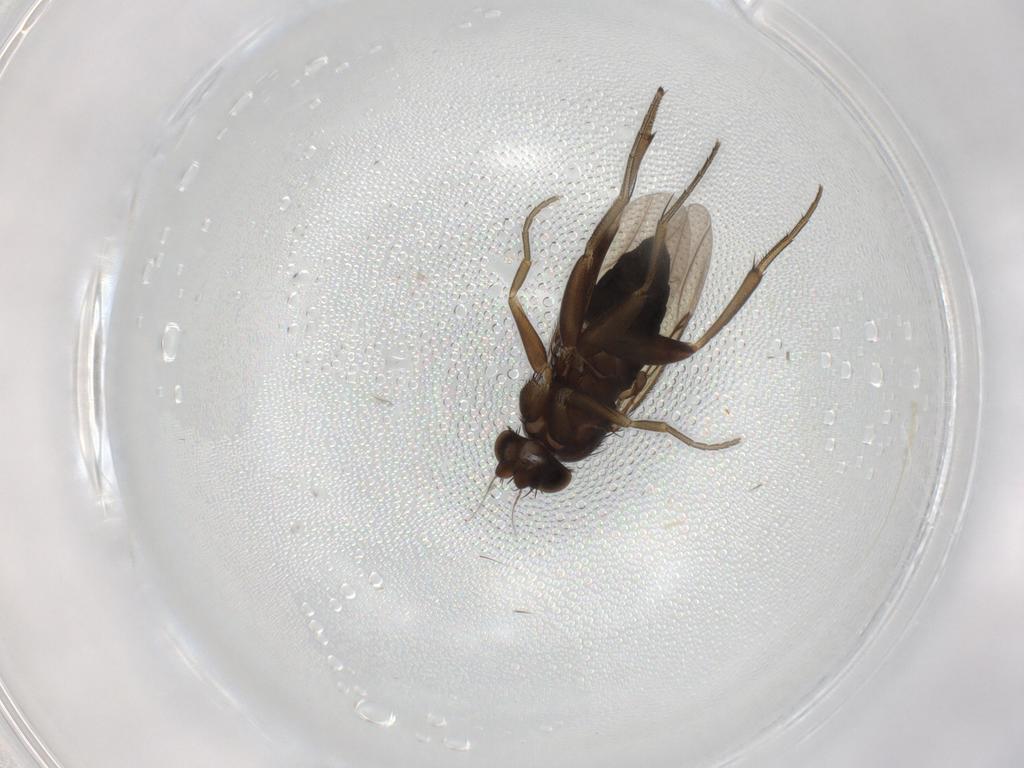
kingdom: Animalia
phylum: Arthropoda
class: Insecta
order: Diptera
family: Phoridae
